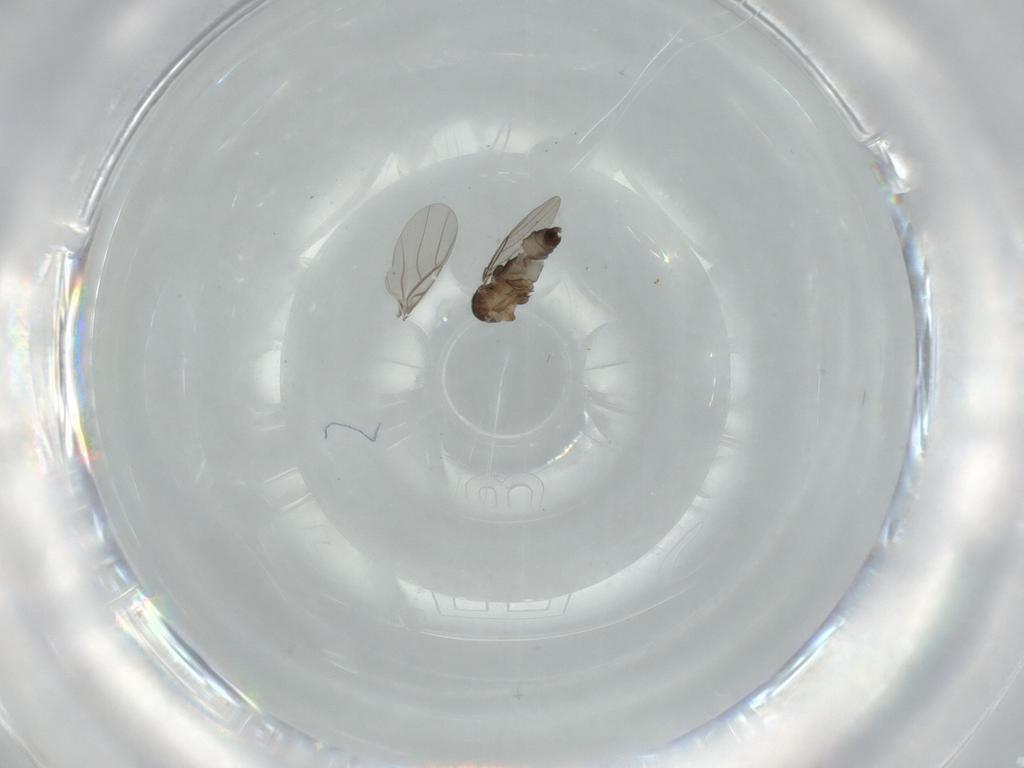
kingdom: Animalia
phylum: Arthropoda
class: Insecta
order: Diptera
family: Phoridae
